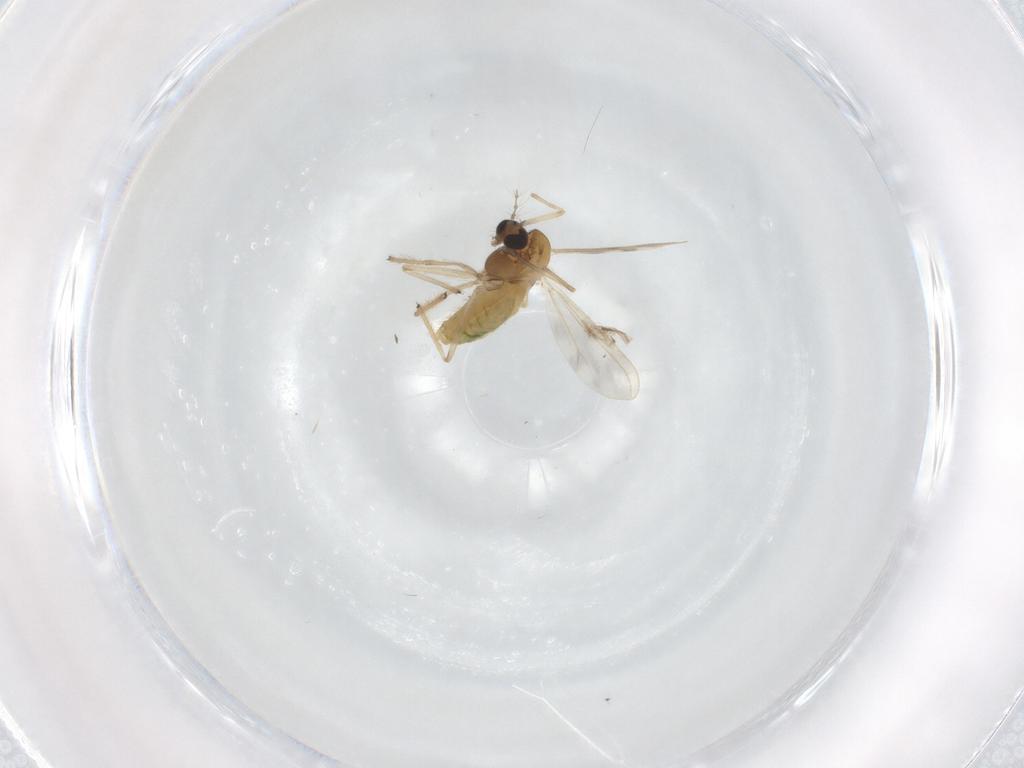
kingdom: Animalia
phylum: Arthropoda
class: Insecta
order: Diptera
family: Chironomidae
